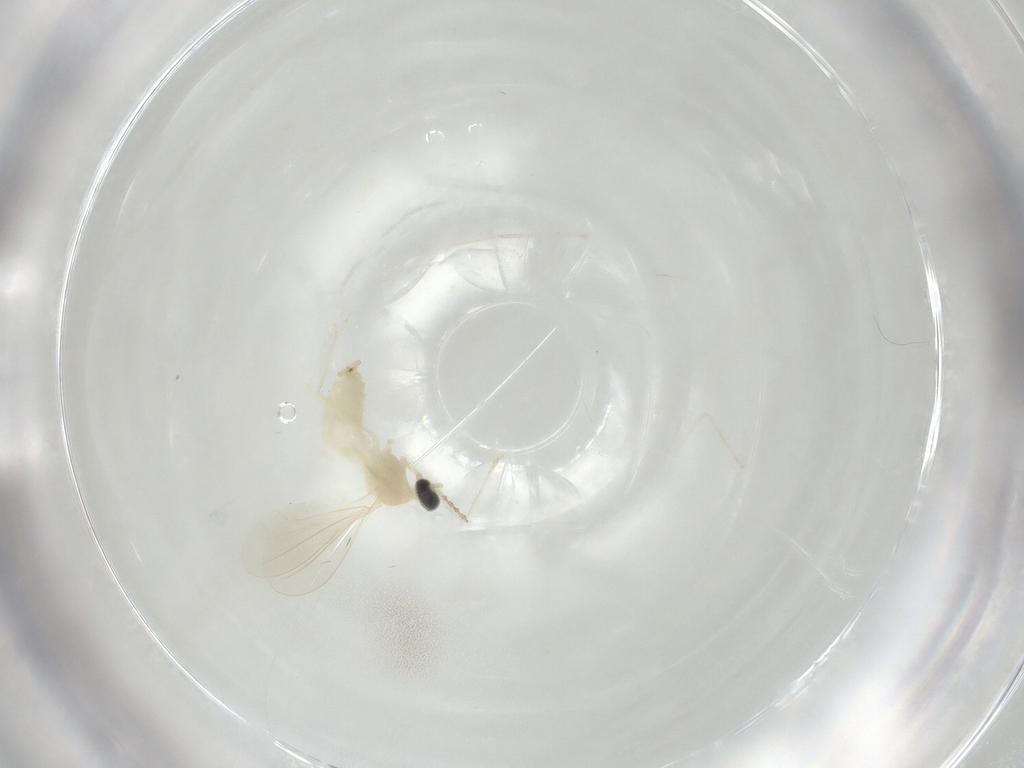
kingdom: Animalia
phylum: Arthropoda
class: Insecta
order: Diptera
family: Cecidomyiidae
